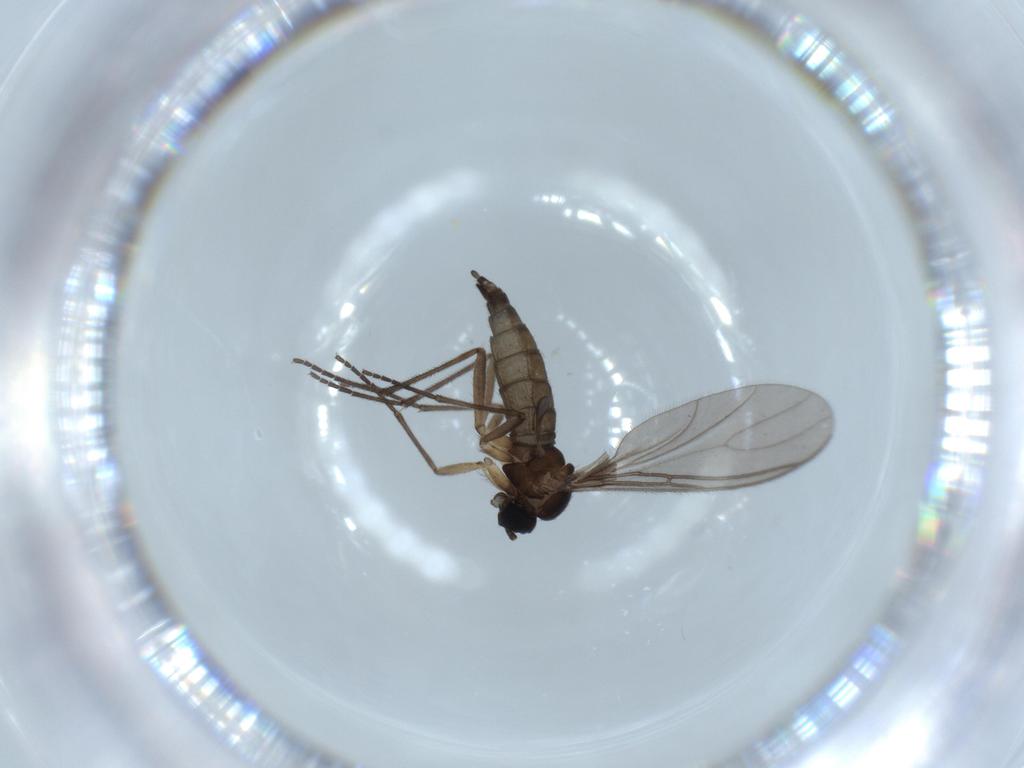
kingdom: Animalia
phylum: Arthropoda
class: Insecta
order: Diptera
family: Sciaridae
